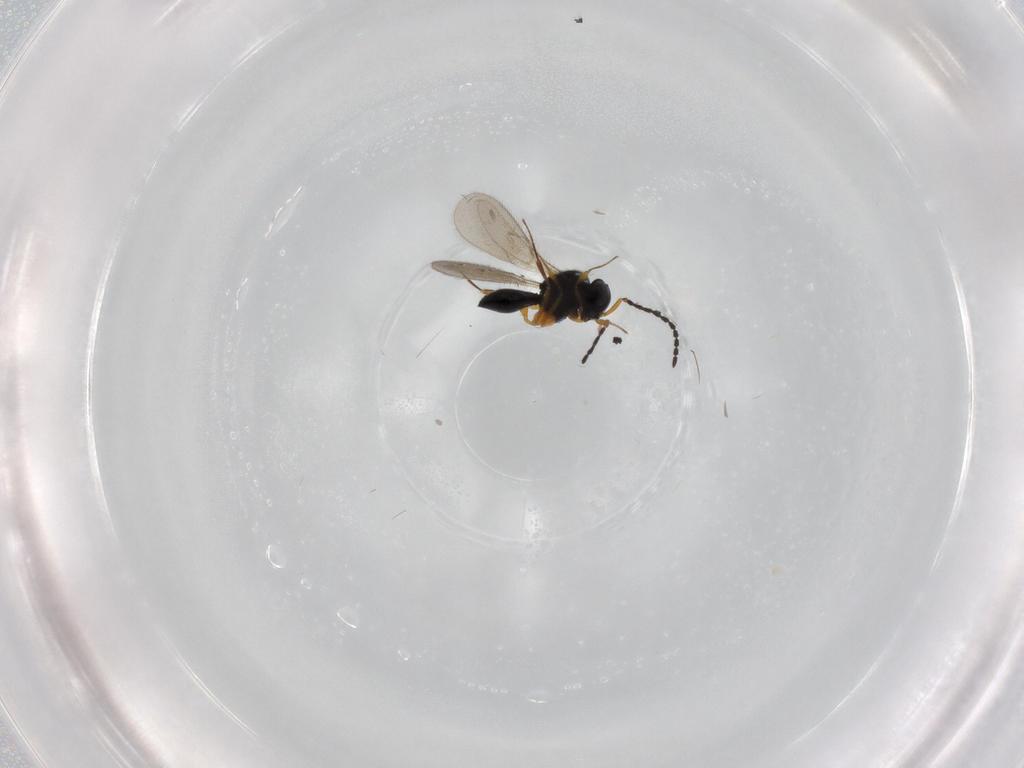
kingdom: Animalia
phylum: Arthropoda
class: Insecta
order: Hymenoptera
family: Scelionidae
